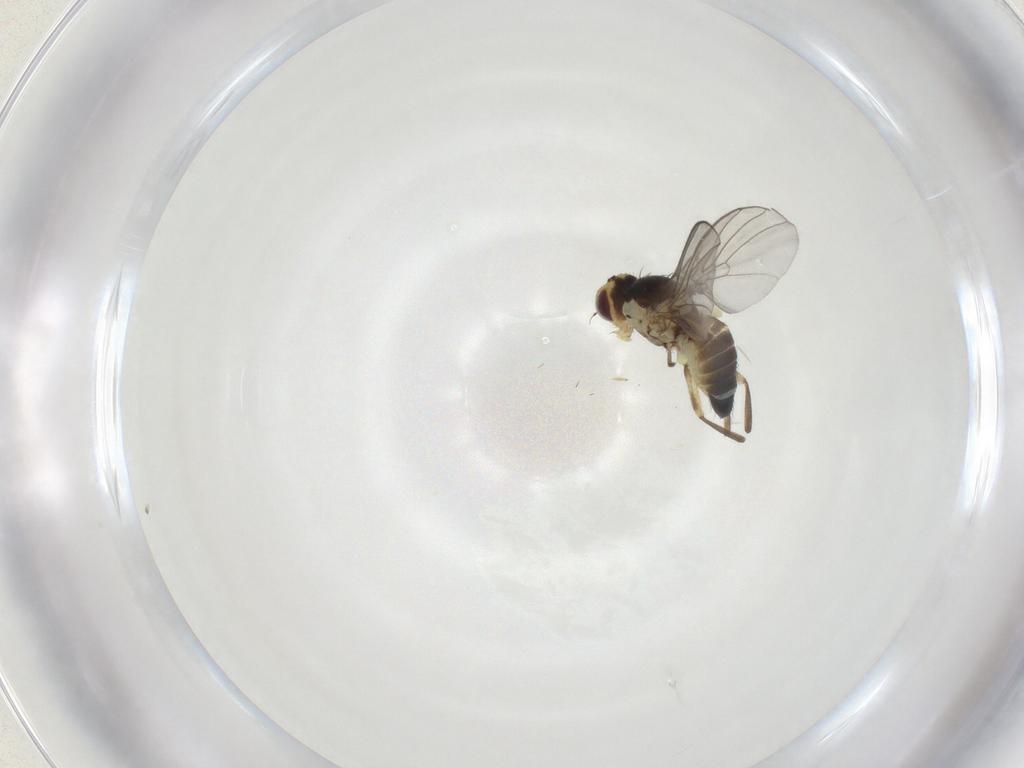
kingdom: Animalia
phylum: Arthropoda
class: Insecta
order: Diptera
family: Agromyzidae
